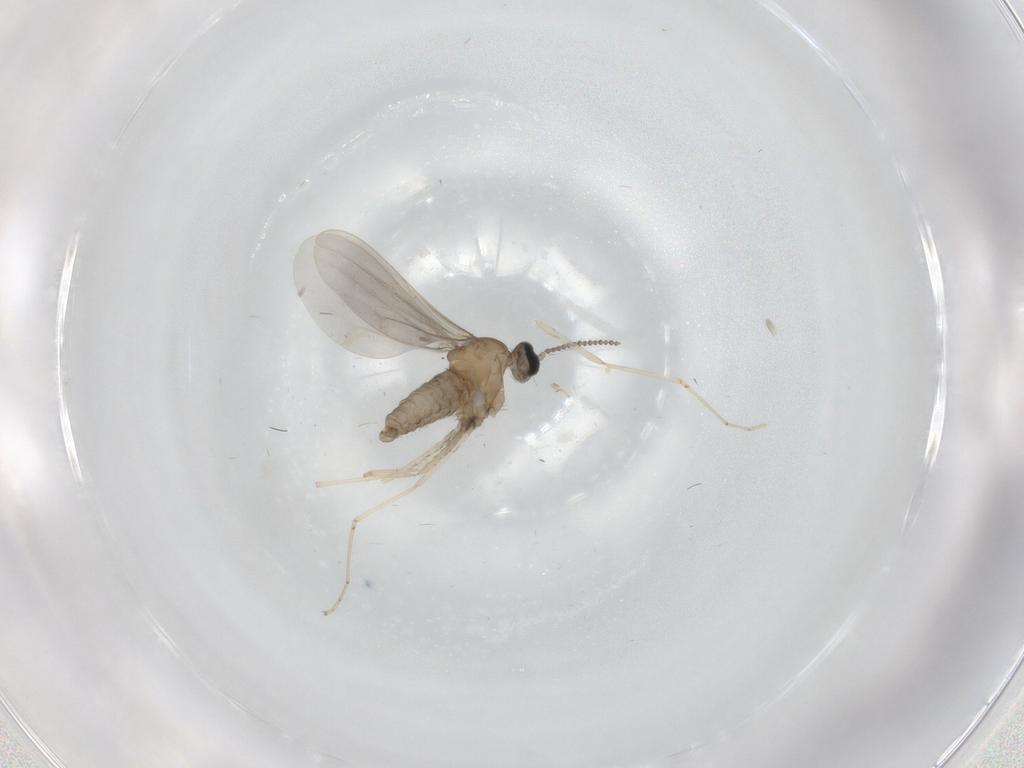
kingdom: Animalia
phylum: Arthropoda
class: Insecta
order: Diptera
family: Chironomidae
